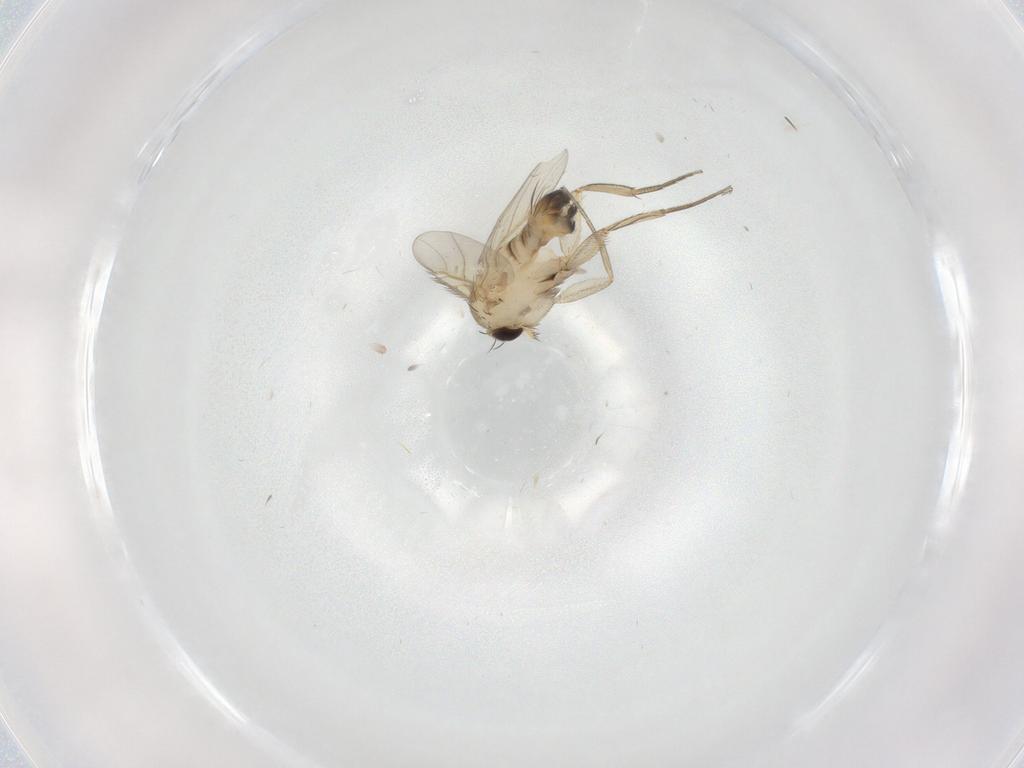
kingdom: Animalia
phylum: Arthropoda
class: Insecta
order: Diptera
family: Phoridae
